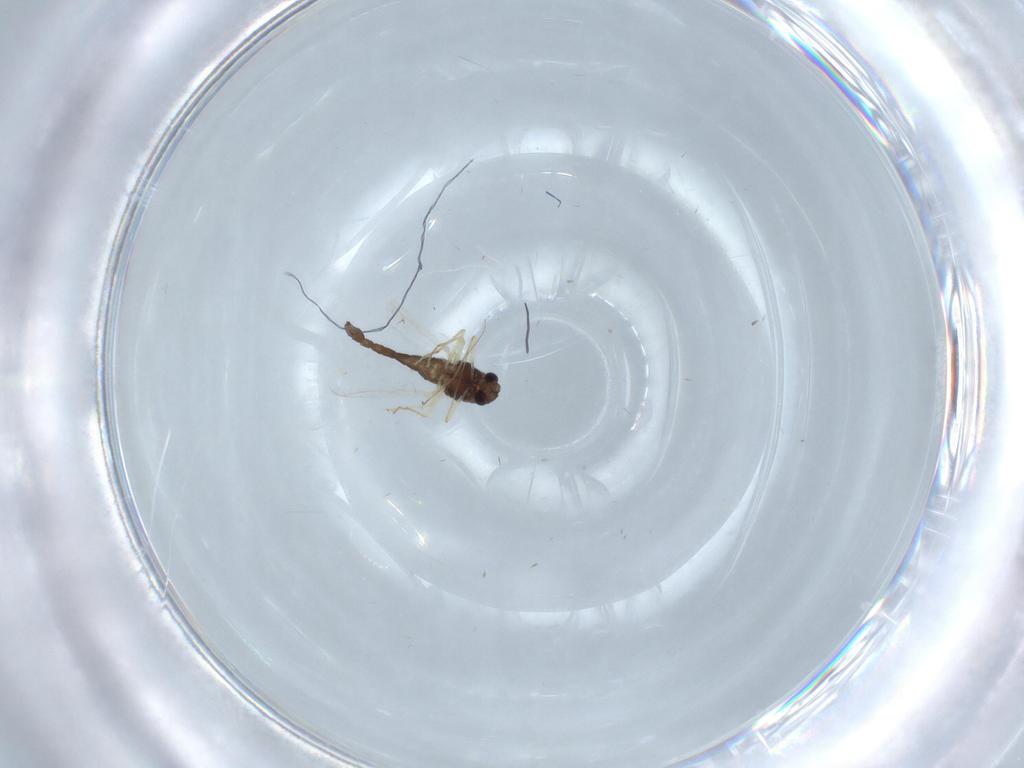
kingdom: Animalia
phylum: Arthropoda
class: Insecta
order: Diptera
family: Chironomidae
